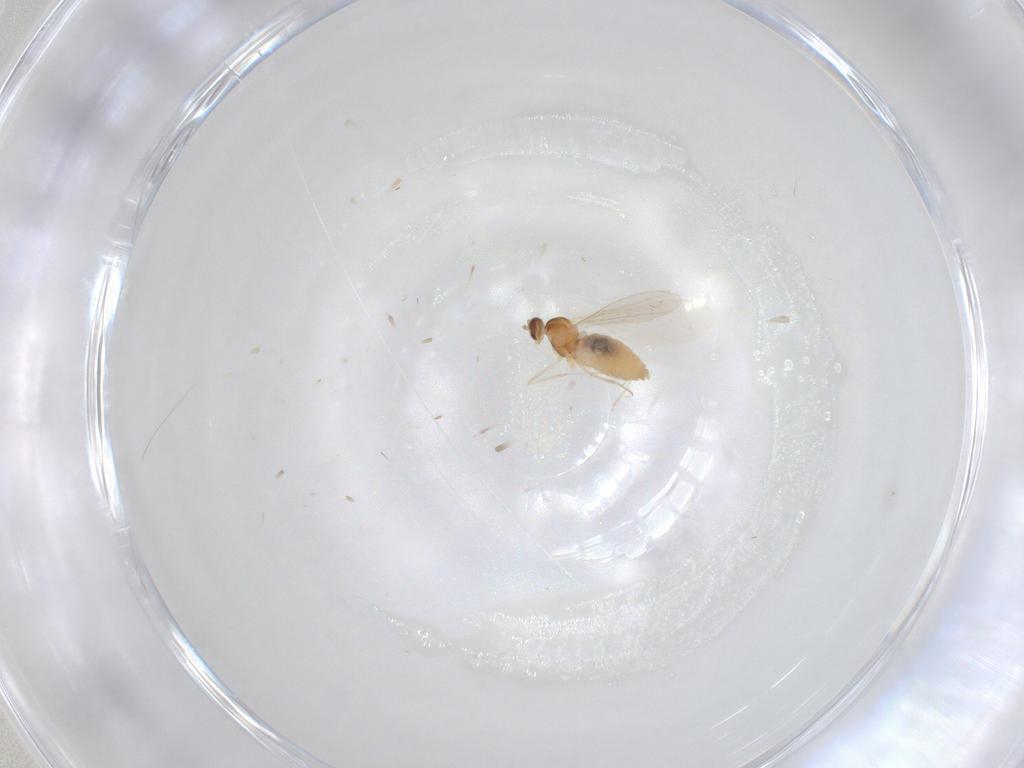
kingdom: Animalia
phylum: Arthropoda
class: Insecta
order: Diptera
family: Cecidomyiidae
